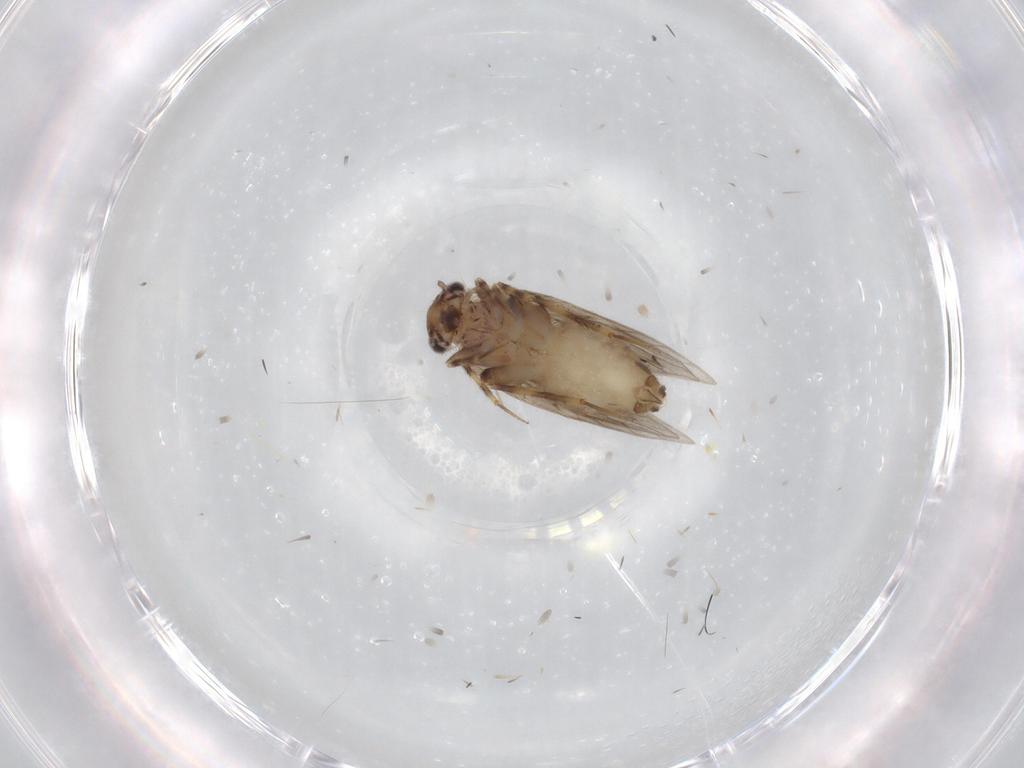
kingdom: Animalia
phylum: Arthropoda
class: Insecta
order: Psocodea
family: Lepidopsocidae
